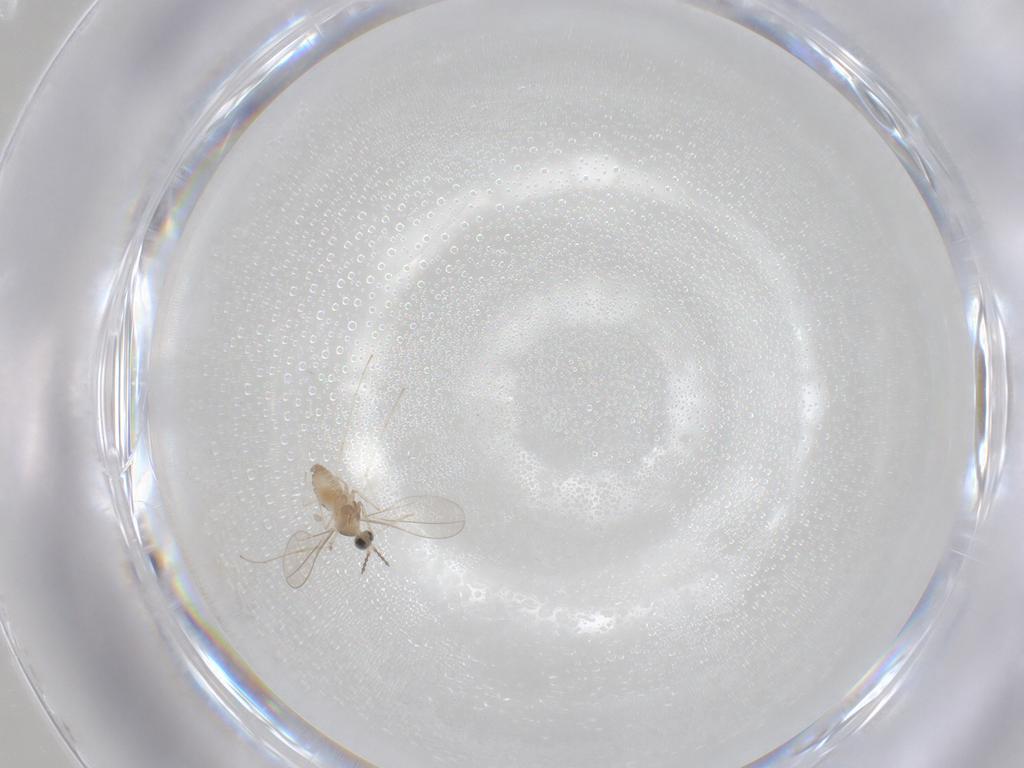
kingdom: Animalia
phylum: Arthropoda
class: Insecta
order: Diptera
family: Cecidomyiidae
